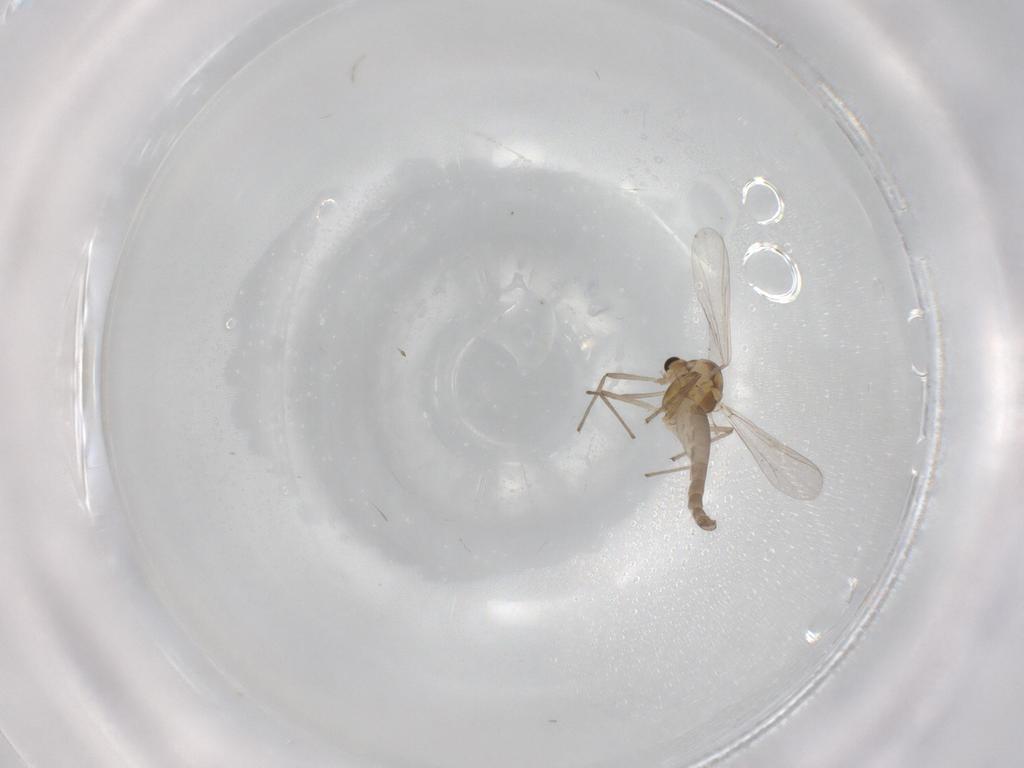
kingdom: Animalia
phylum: Arthropoda
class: Insecta
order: Diptera
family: Chironomidae
